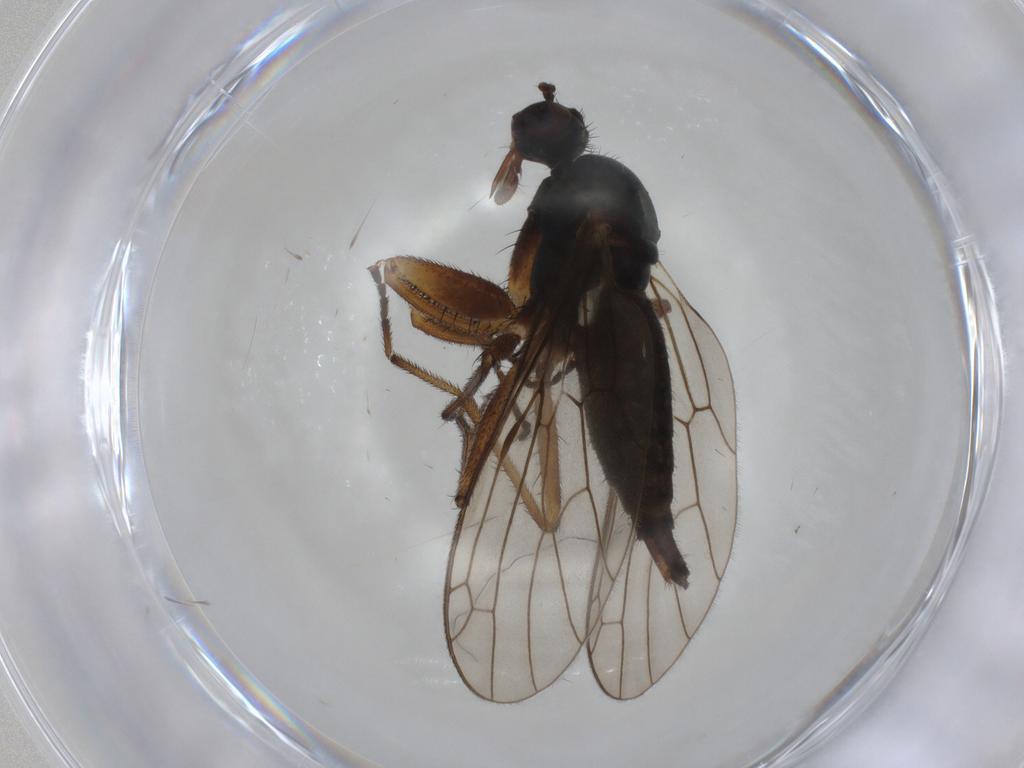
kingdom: Animalia
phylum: Arthropoda
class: Insecta
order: Diptera
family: Empididae
